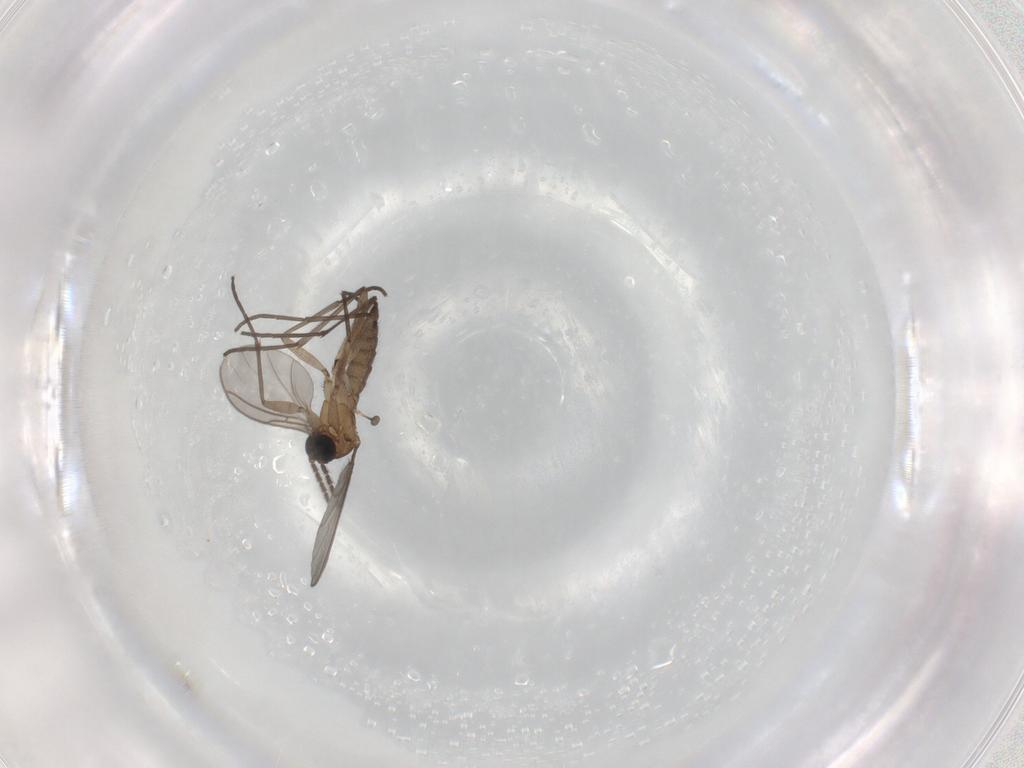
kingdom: Animalia
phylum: Arthropoda
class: Insecta
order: Diptera
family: Sciaridae
